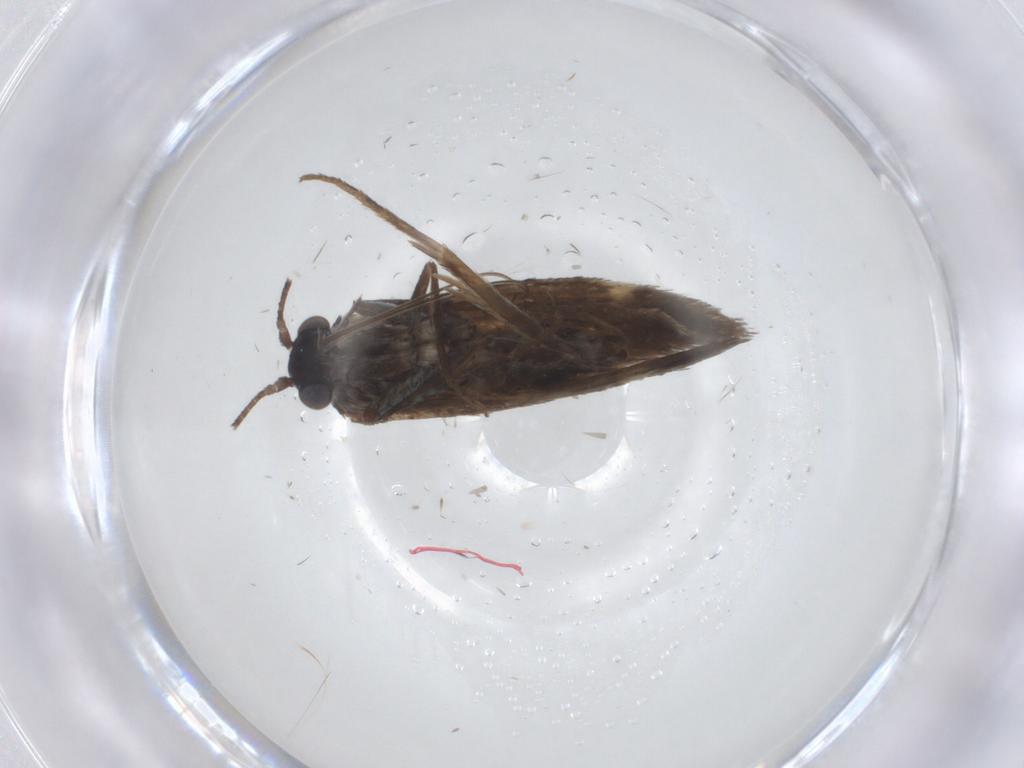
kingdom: Animalia
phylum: Arthropoda
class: Insecta
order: Lepidoptera
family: Adelidae
